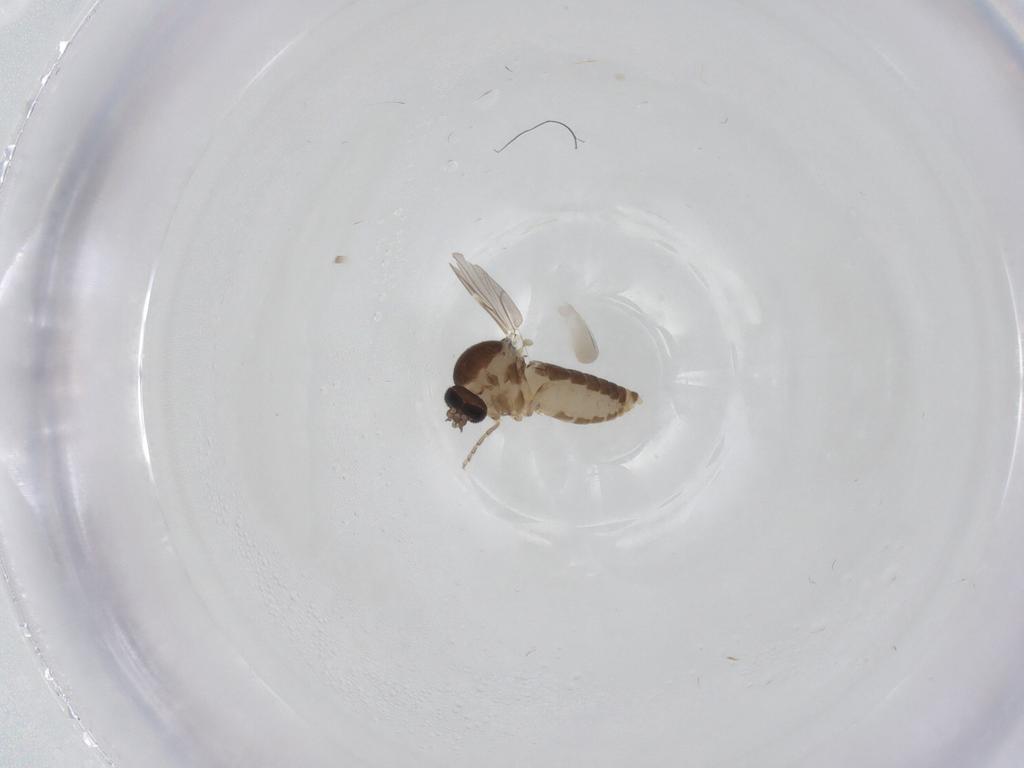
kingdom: Animalia
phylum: Arthropoda
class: Insecta
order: Diptera
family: Ceratopogonidae
